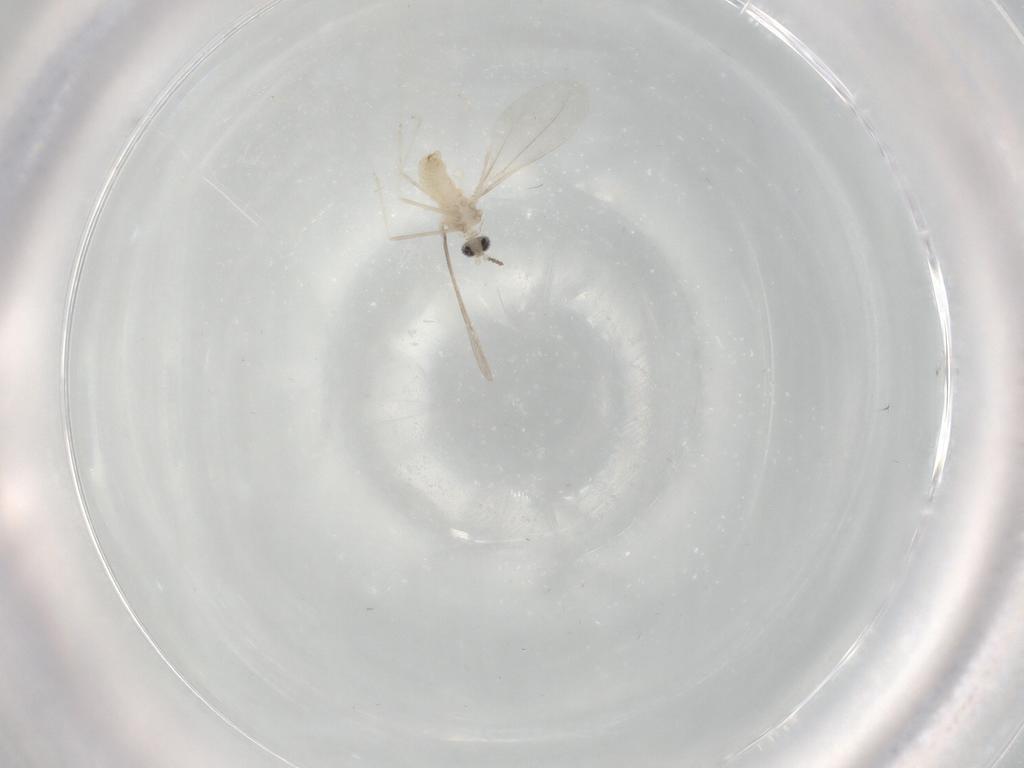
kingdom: Animalia
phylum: Arthropoda
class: Insecta
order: Diptera
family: Cecidomyiidae
